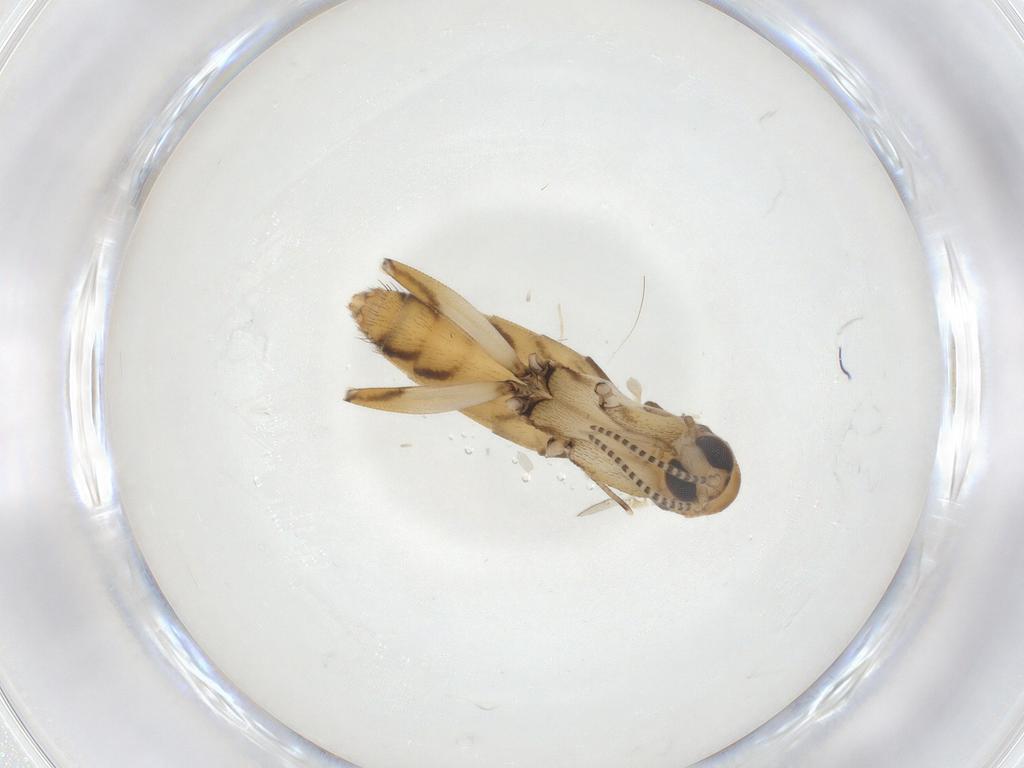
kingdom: Animalia
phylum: Arthropoda
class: Insecta
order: Diptera
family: Mycetophilidae
